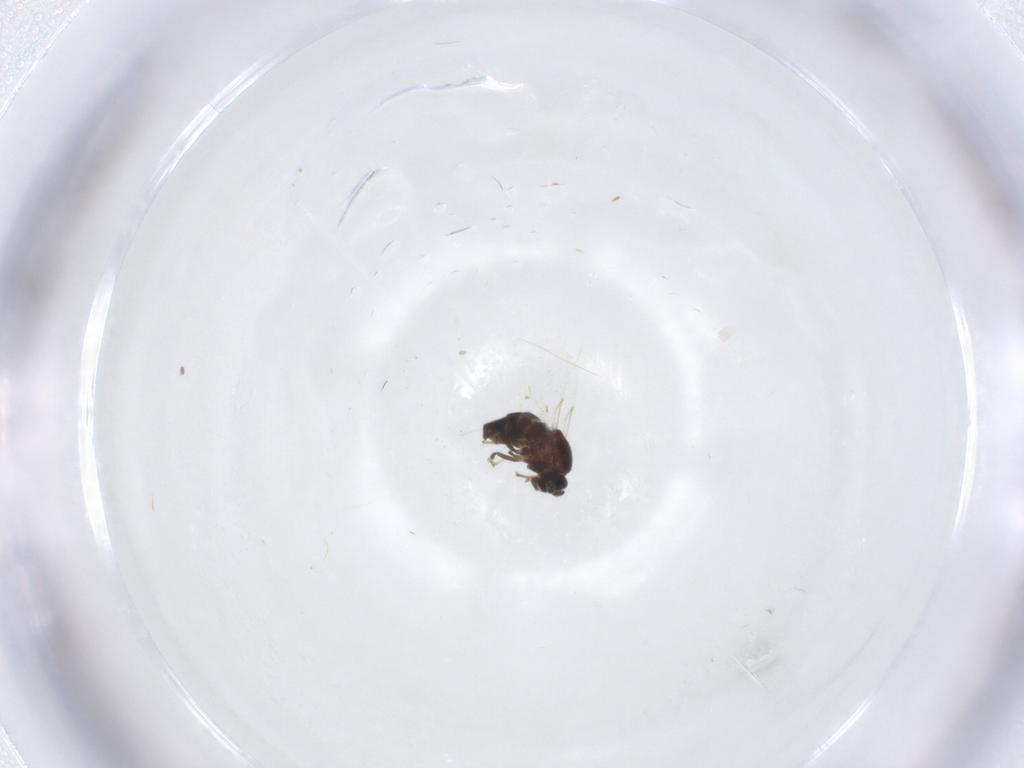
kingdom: Animalia
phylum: Arthropoda
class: Insecta
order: Diptera
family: Scatopsidae
